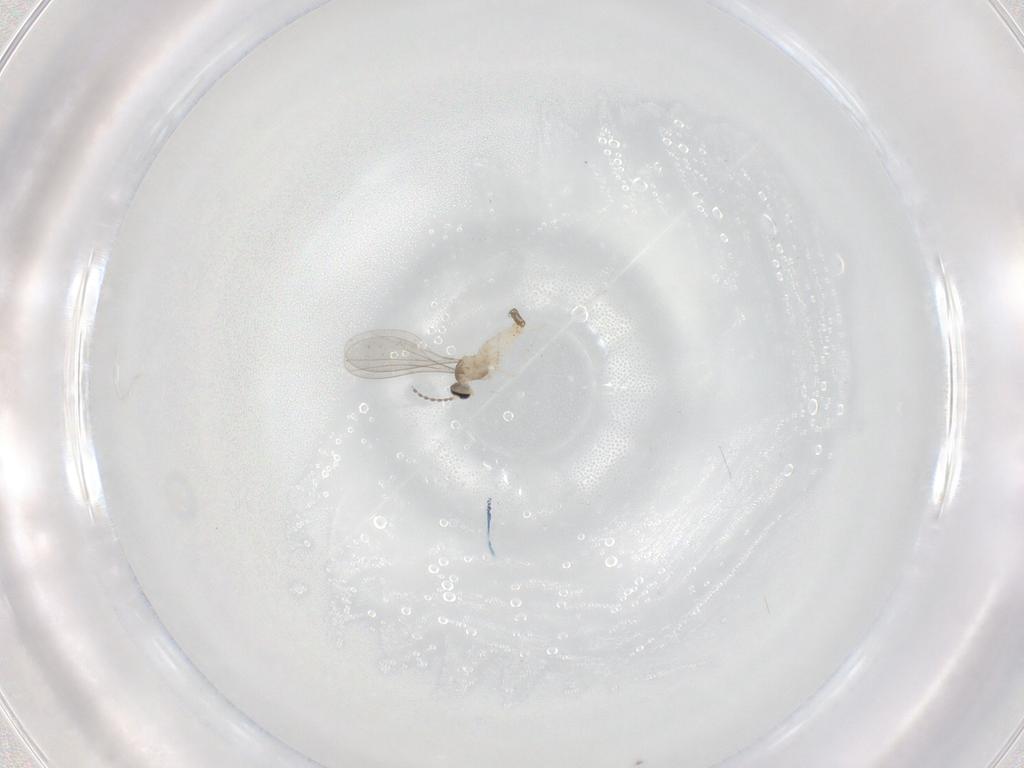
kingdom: Animalia
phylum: Arthropoda
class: Insecta
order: Diptera
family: Cecidomyiidae
